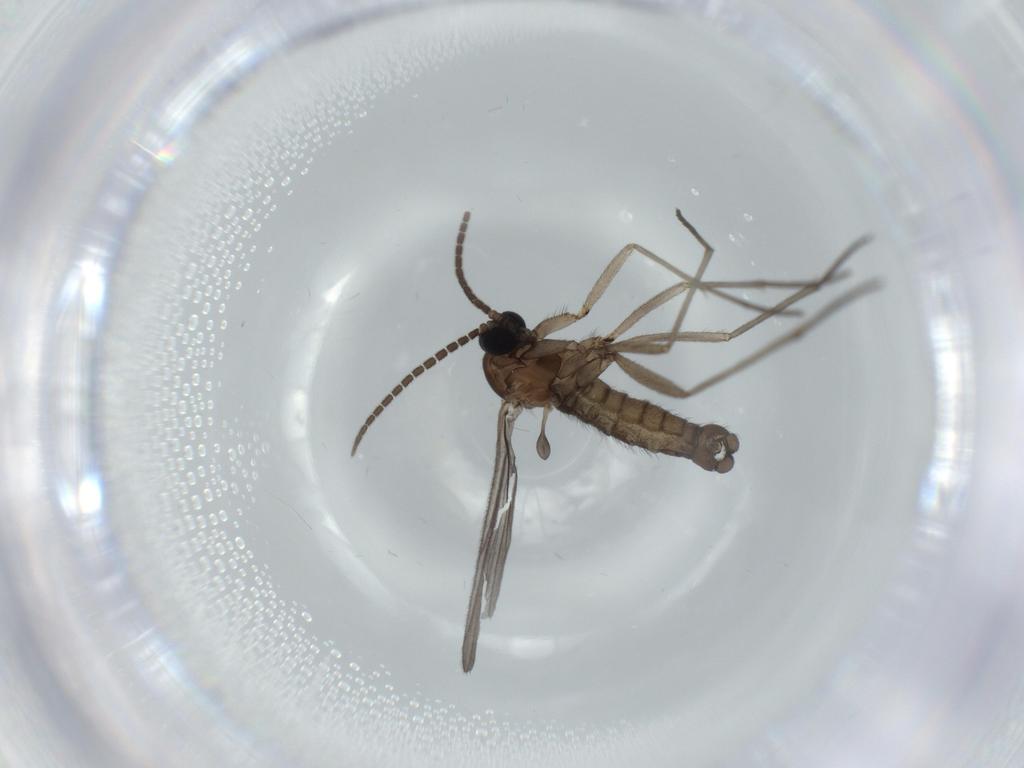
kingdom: Animalia
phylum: Arthropoda
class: Insecta
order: Diptera
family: Sciaridae
